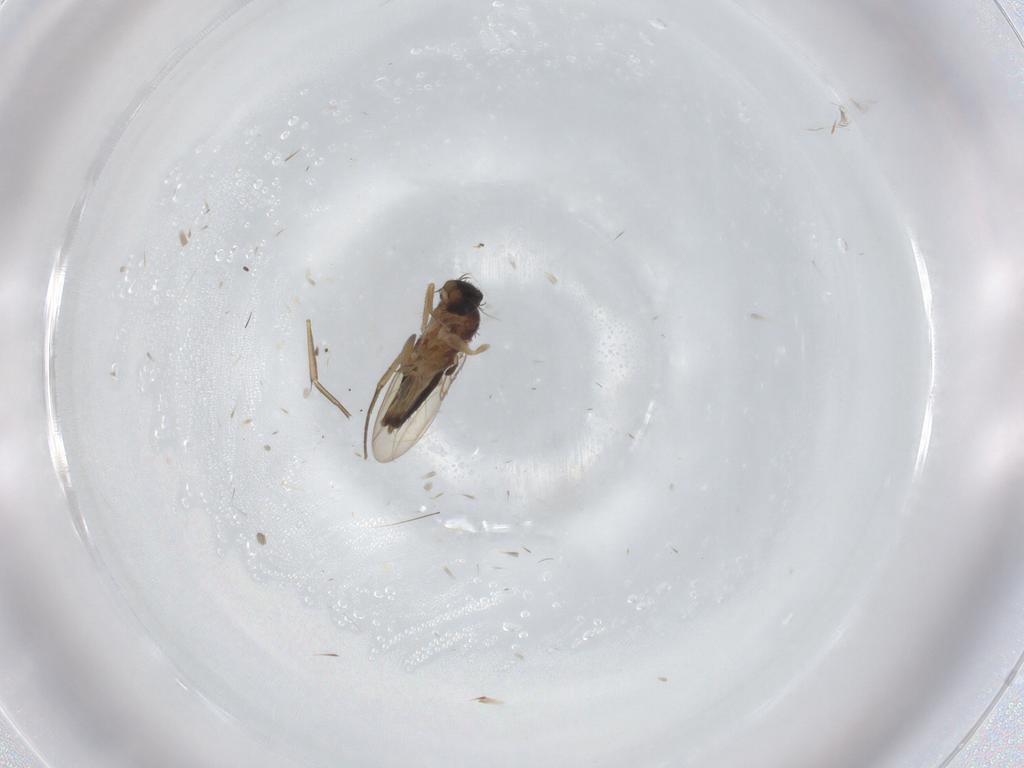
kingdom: Animalia
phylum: Arthropoda
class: Insecta
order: Diptera
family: Phoridae
